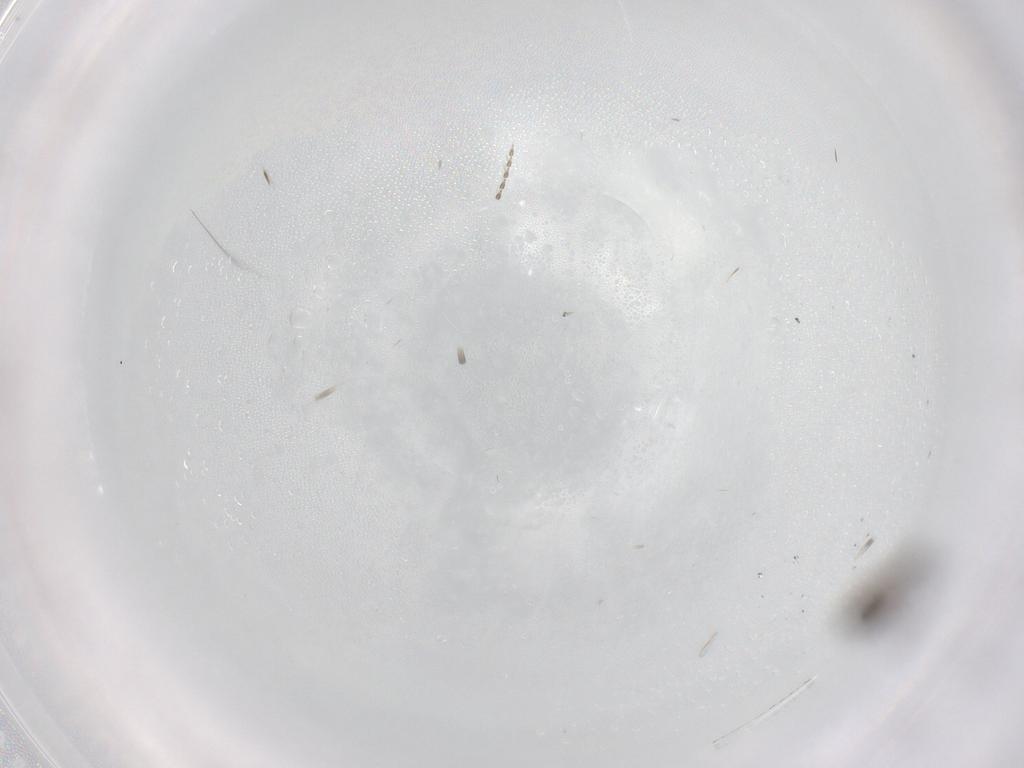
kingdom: Animalia
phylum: Arthropoda
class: Insecta
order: Diptera
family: Chironomidae
